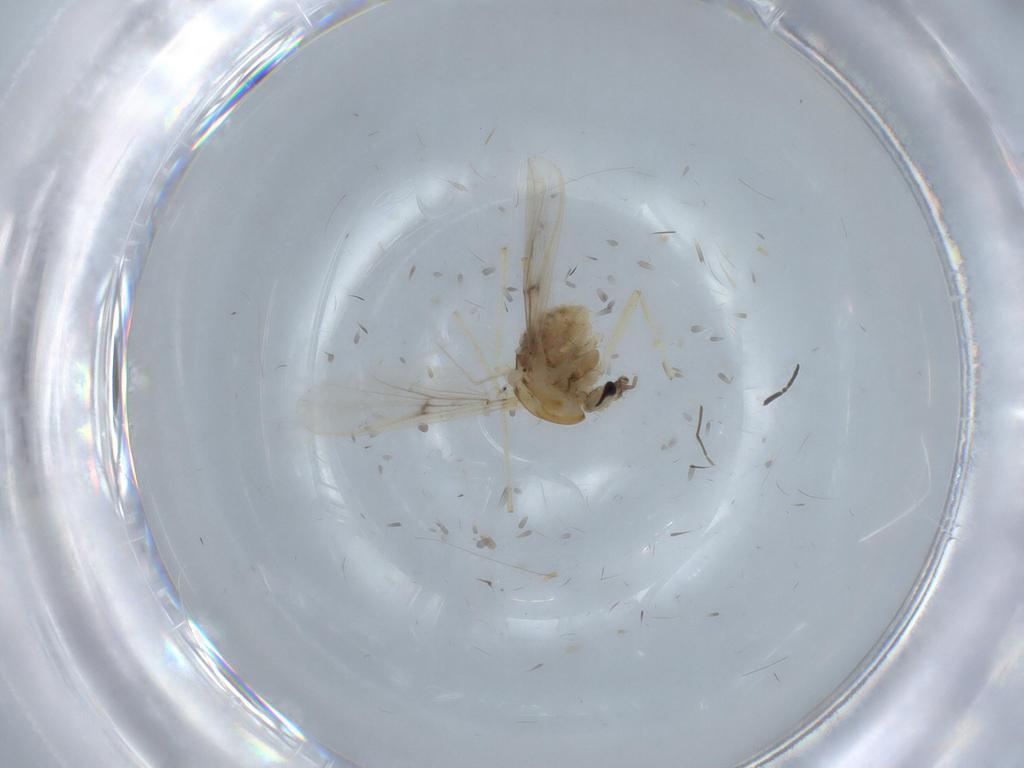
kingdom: Animalia
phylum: Arthropoda
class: Insecta
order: Diptera
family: Chironomidae
